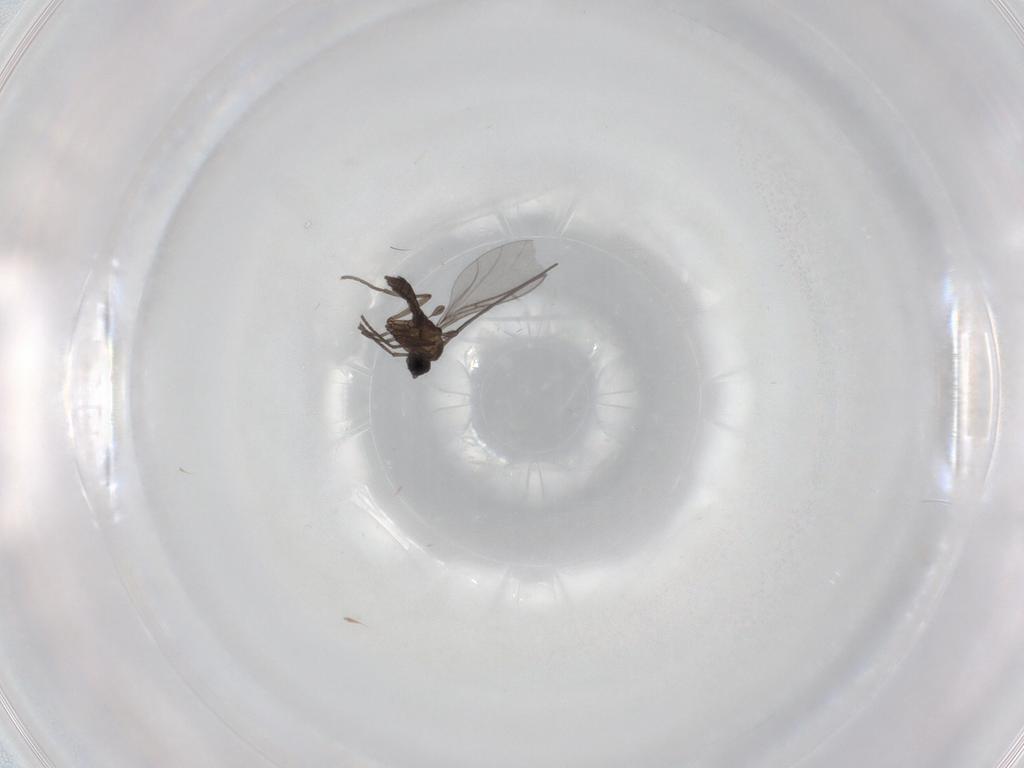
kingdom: Animalia
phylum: Arthropoda
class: Insecta
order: Diptera
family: Sciaridae
